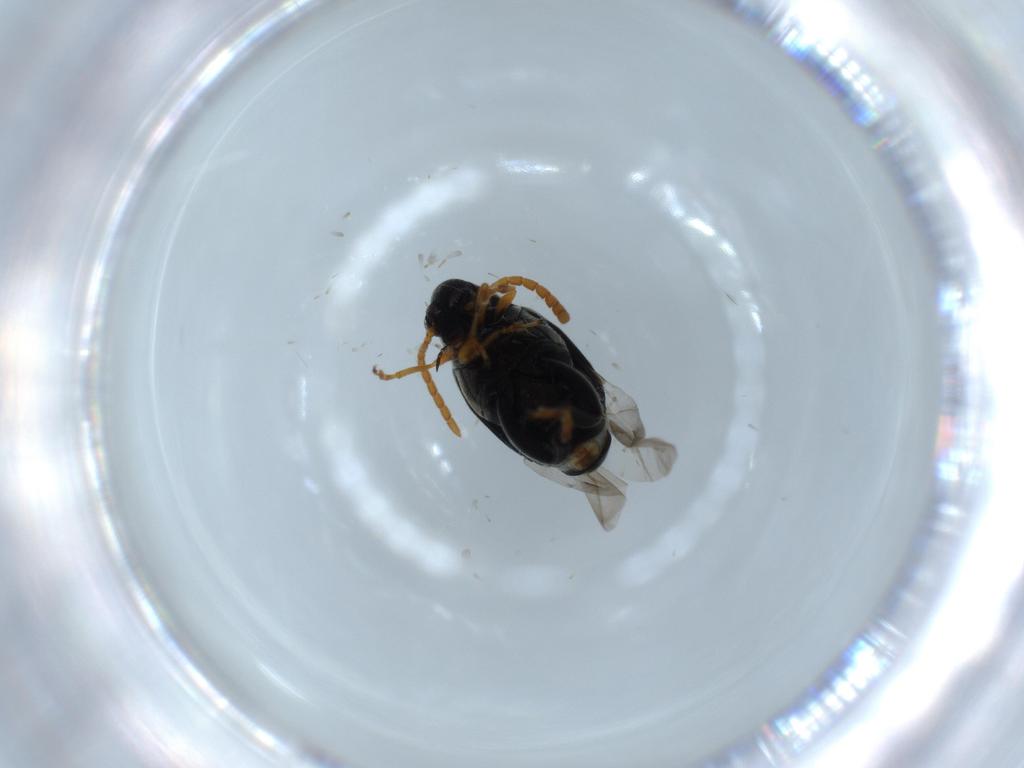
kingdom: Animalia
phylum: Arthropoda
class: Insecta
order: Coleoptera
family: Chrysomelidae
